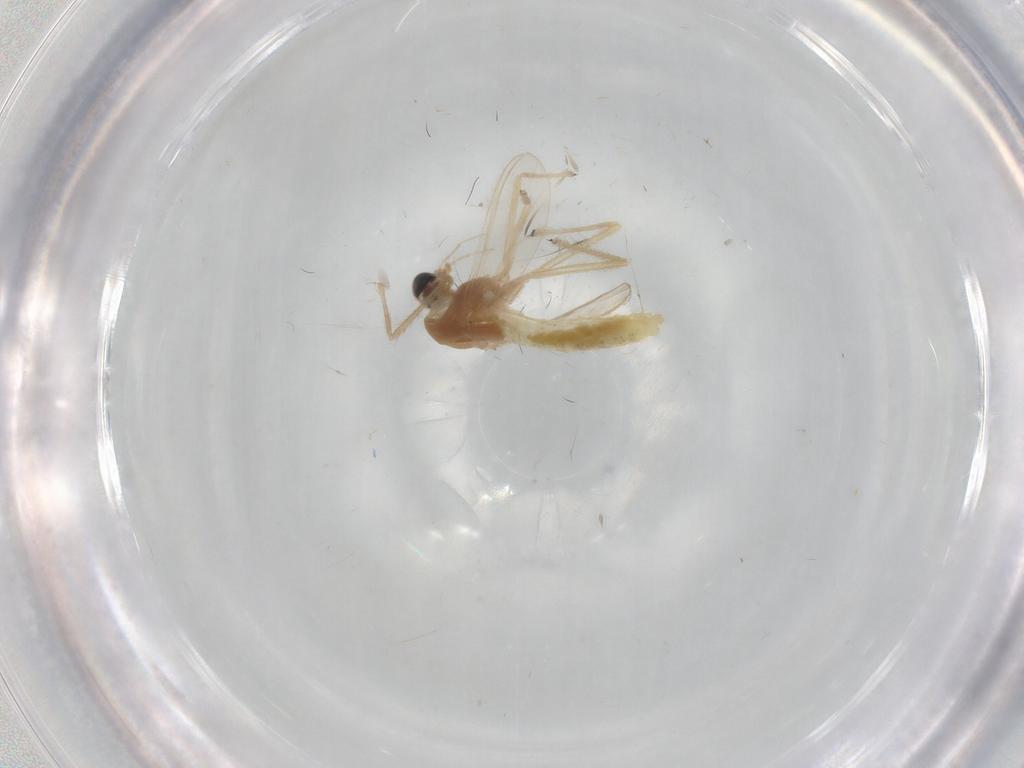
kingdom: Animalia
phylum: Arthropoda
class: Insecta
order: Diptera
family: Chironomidae
